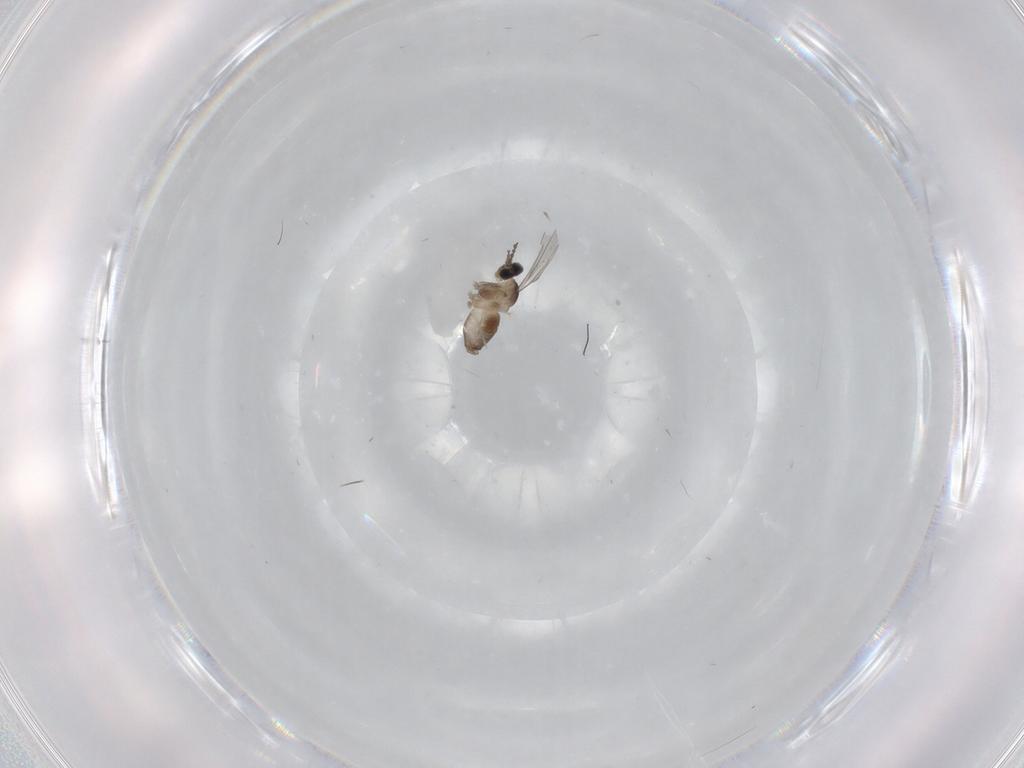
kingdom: Animalia
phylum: Arthropoda
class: Insecta
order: Diptera
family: Cecidomyiidae
